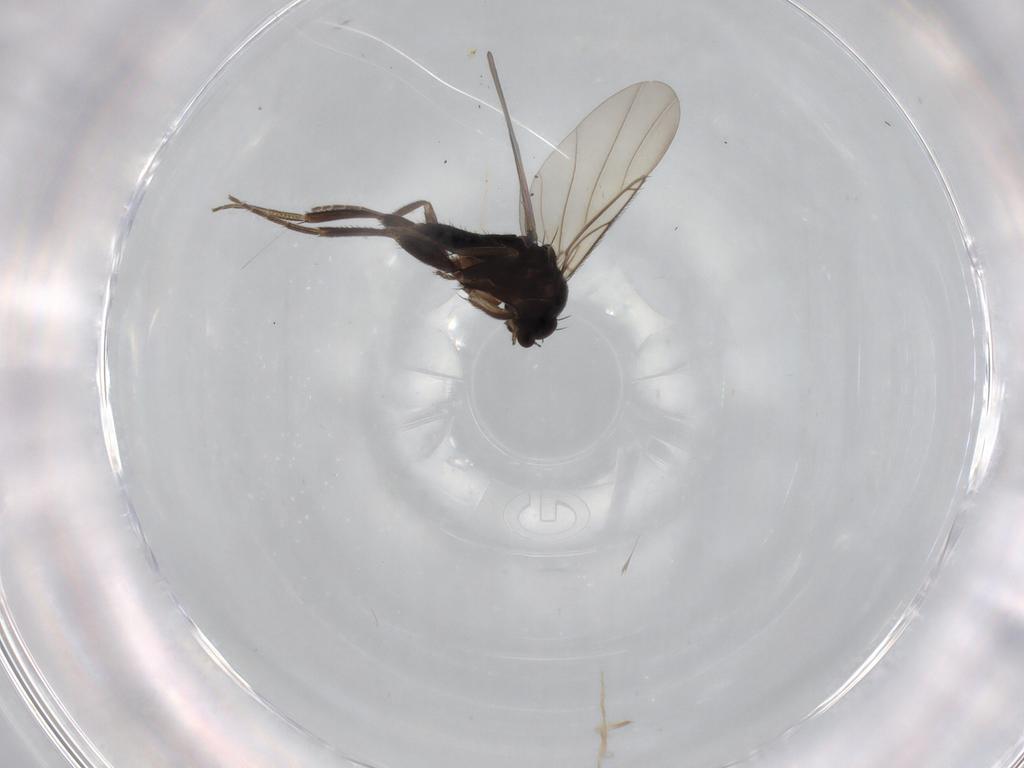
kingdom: Animalia
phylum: Arthropoda
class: Insecta
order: Diptera
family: Phoridae
